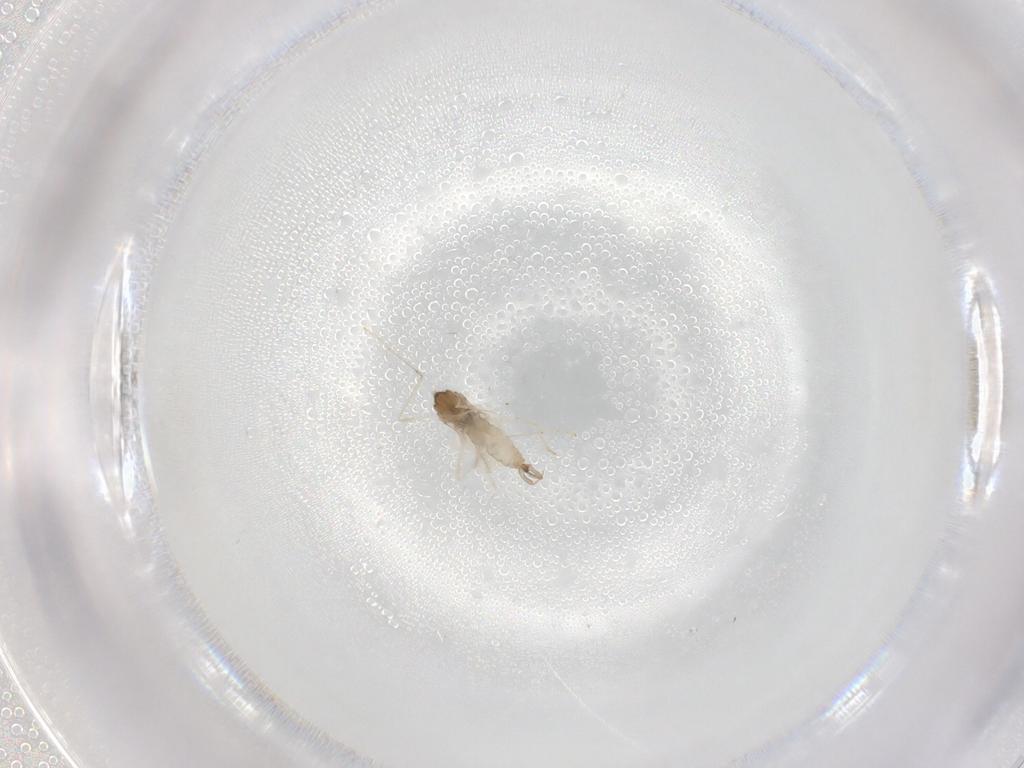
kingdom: Animalia
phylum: Arthropoda
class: Insecta
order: Diptera
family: Cecidomyiidae
